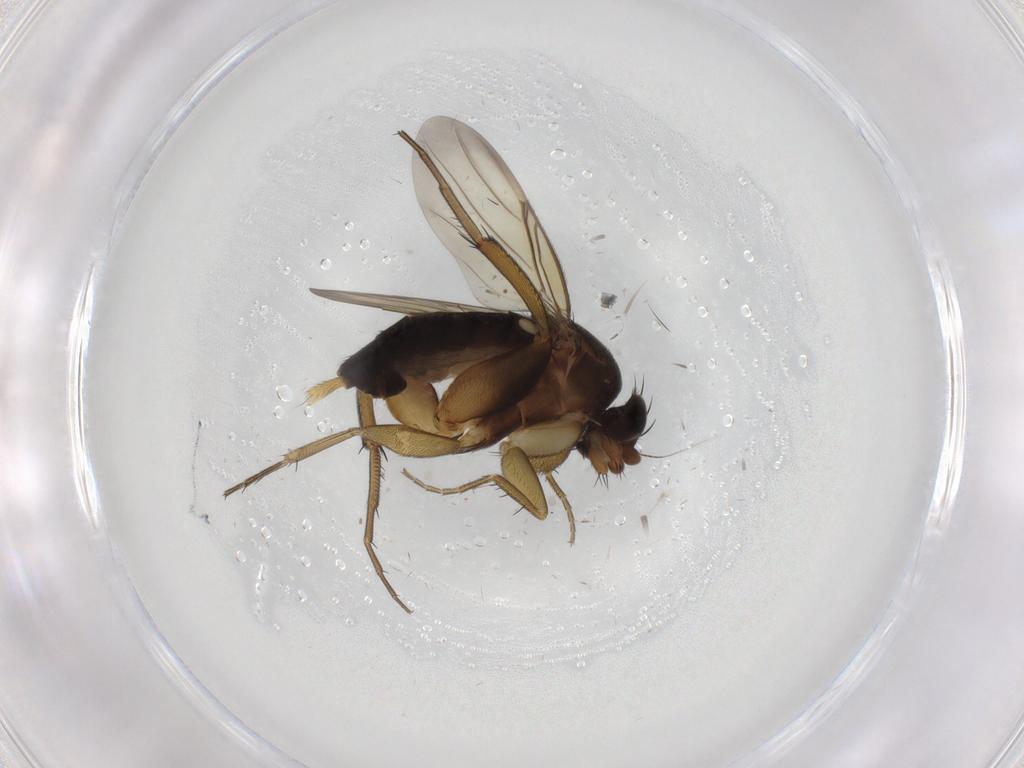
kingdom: Animalia
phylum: Arthropoda
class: Insecta
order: Diptera
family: Phoridae
